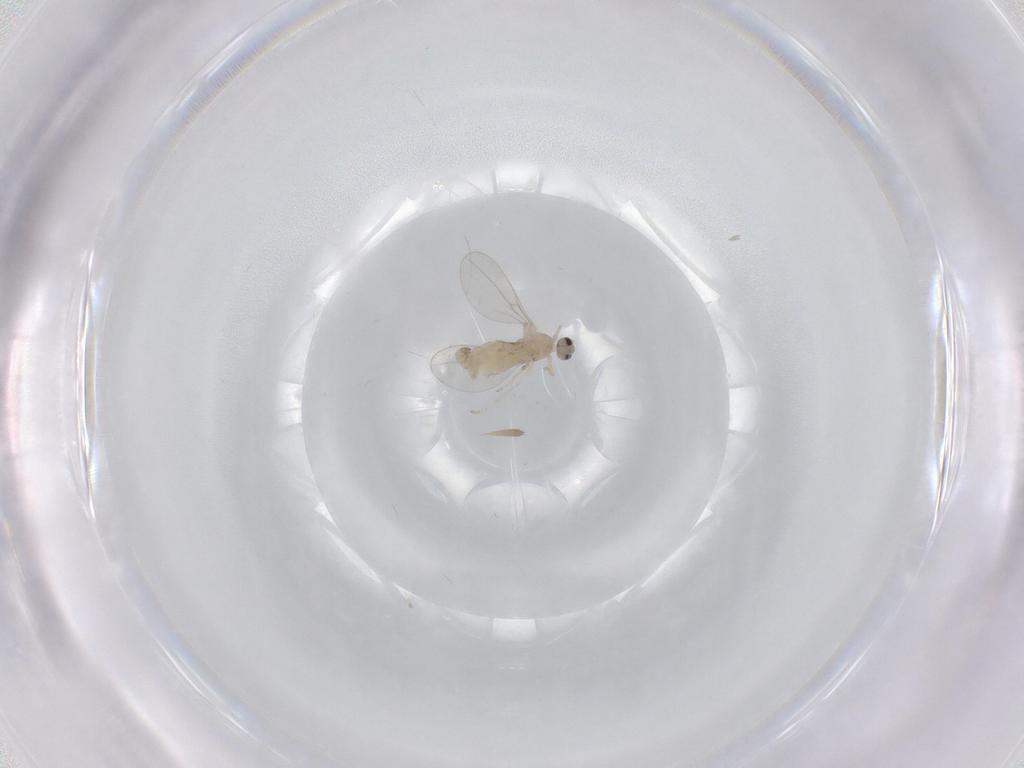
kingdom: Animalia
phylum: Arthropoda
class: Insecta
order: Diptera
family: Cecidomyiidae
